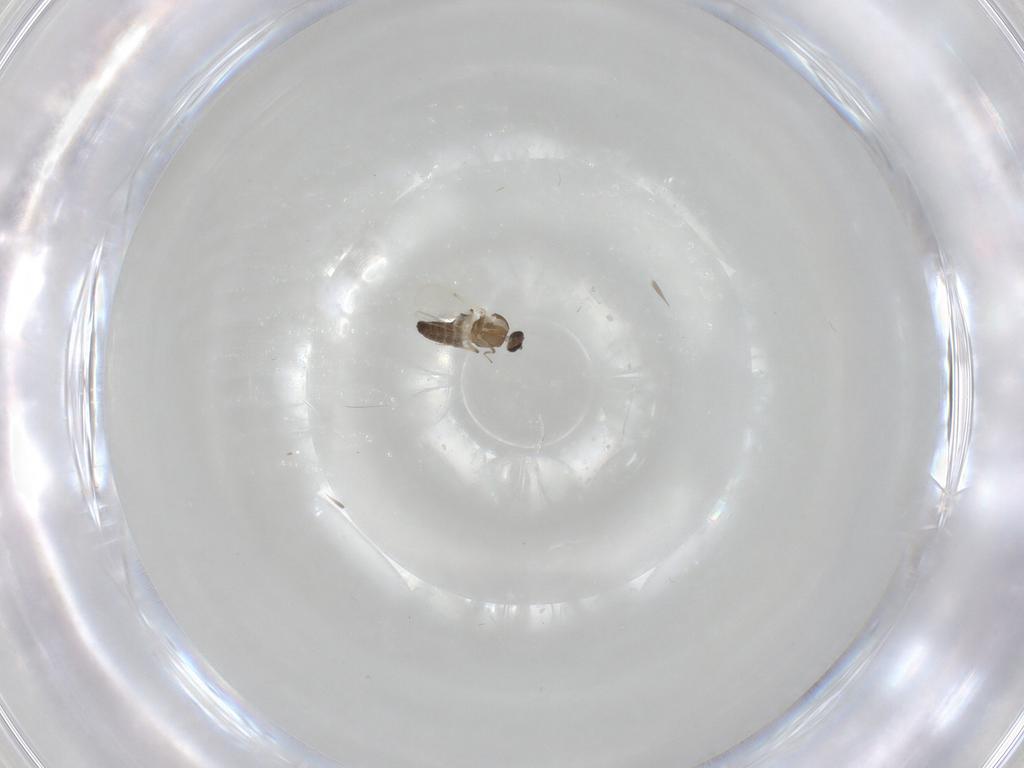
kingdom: Animalia
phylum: Arthropoda
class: Insecta
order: Diptera
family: Ceratopogonidae
